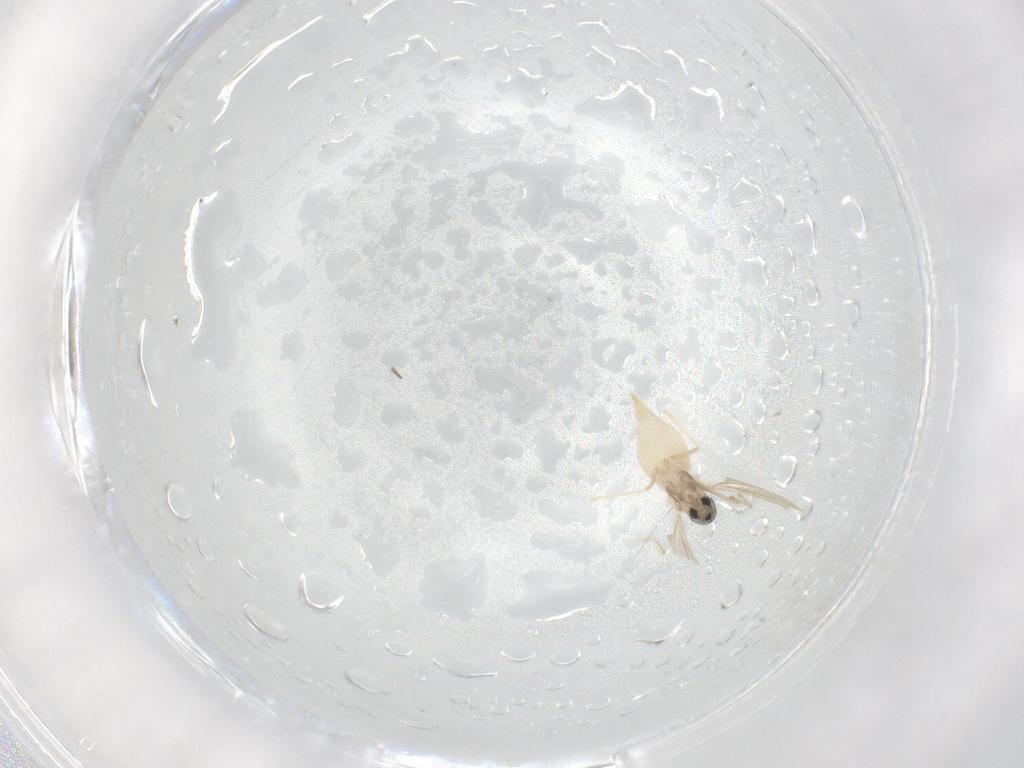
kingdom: Animalia
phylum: Arthropoda
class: Insecta
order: Diptera
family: Cecidomyiidae
